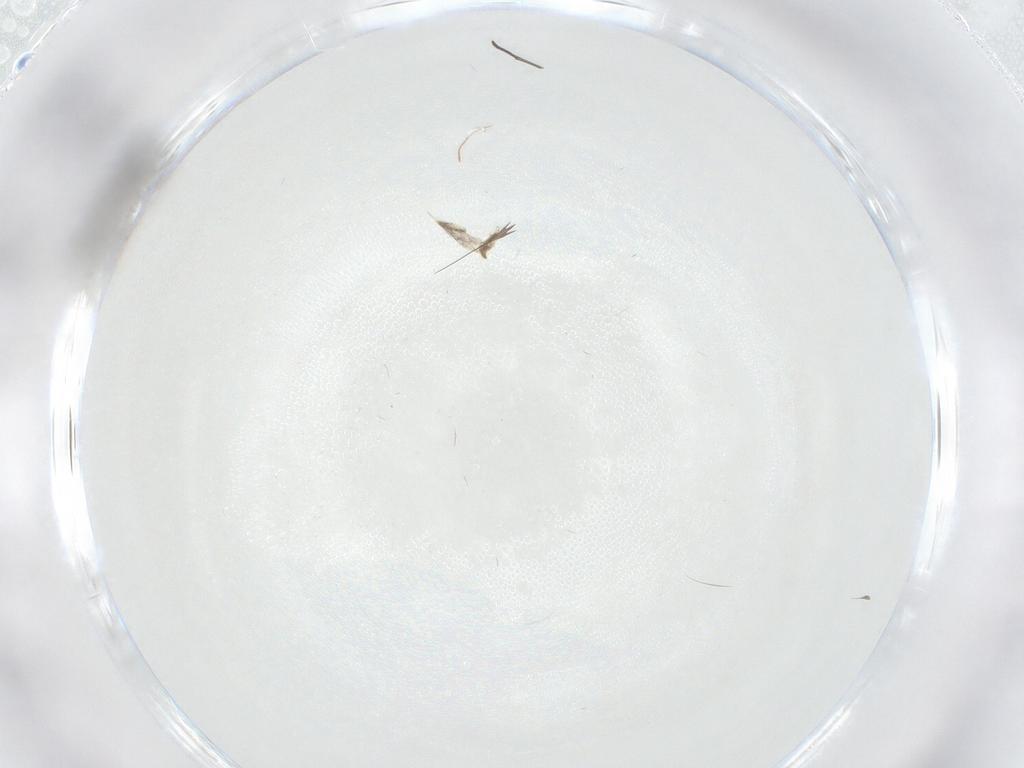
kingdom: Animalia
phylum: Arthropoda
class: Insecta
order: Diptera
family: Chironomidae
